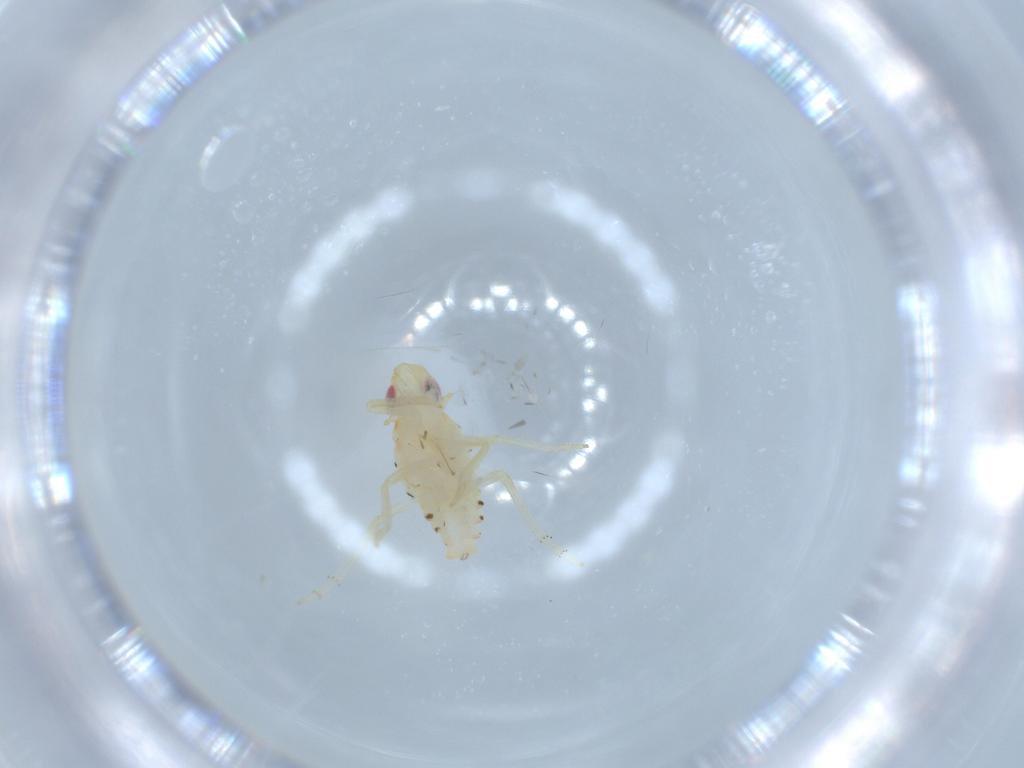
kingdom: Animalia
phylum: Arthropoda
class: Insecta
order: Hemiptera
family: Tropiduchidae
